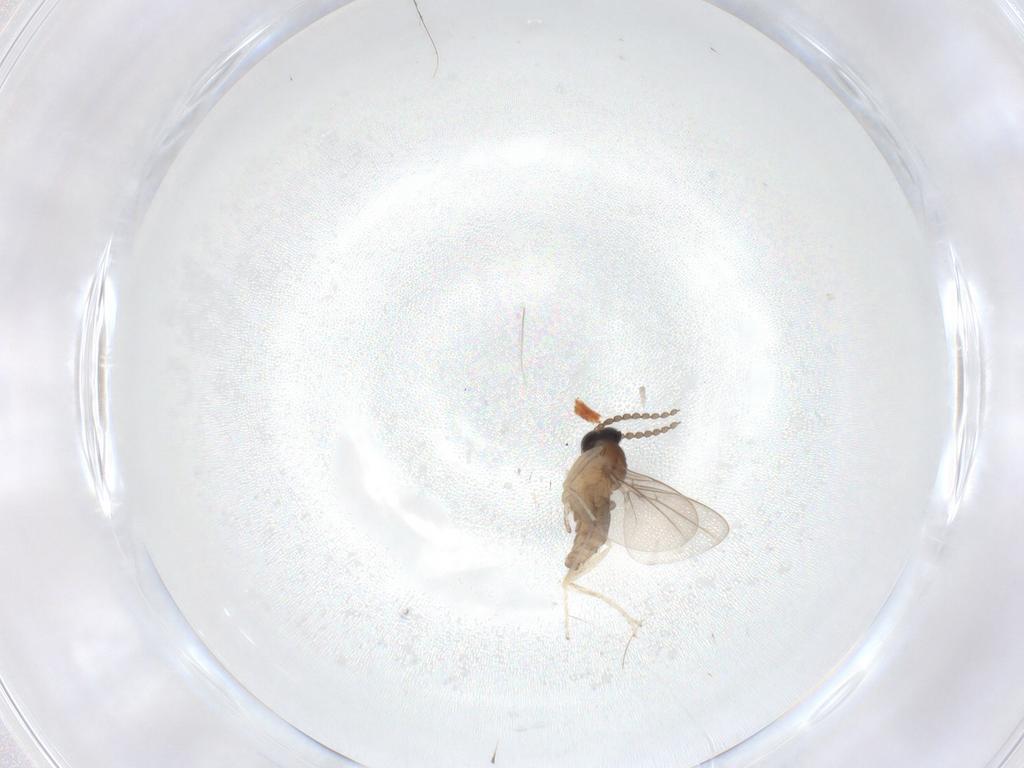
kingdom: Animalia
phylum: Arthropoda
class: Insecta
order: Diptera
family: Cecidomyiidae
